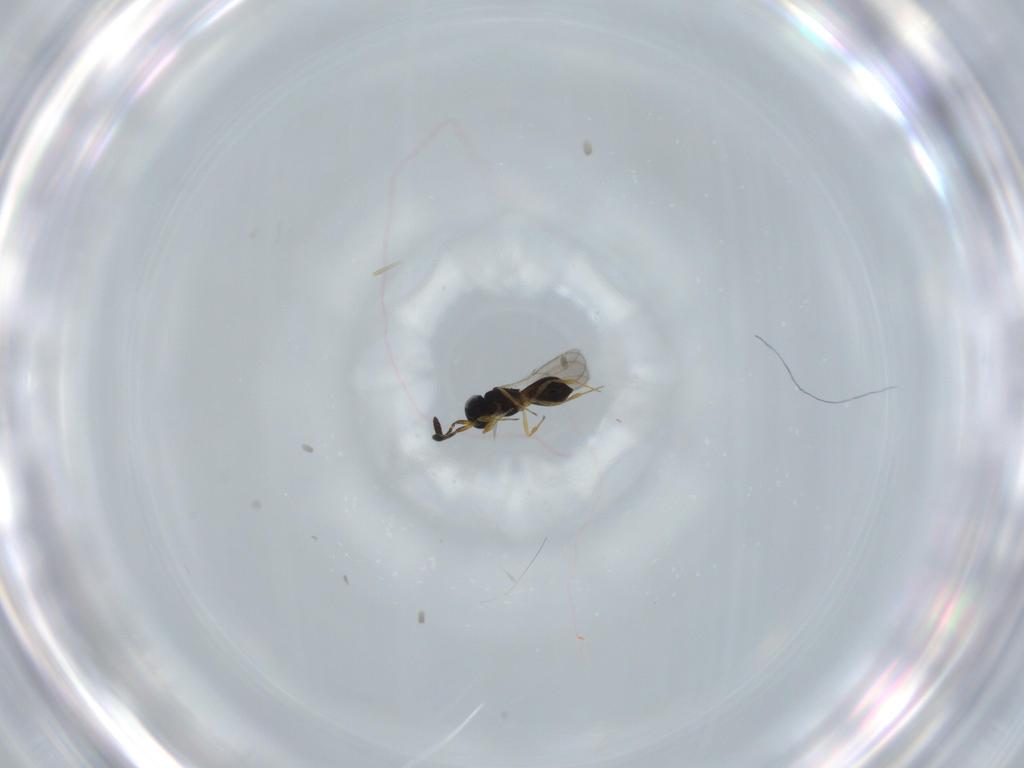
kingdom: Animalia
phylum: Arthropoda
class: Insecta
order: Hymenoptera
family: Scelionidae
